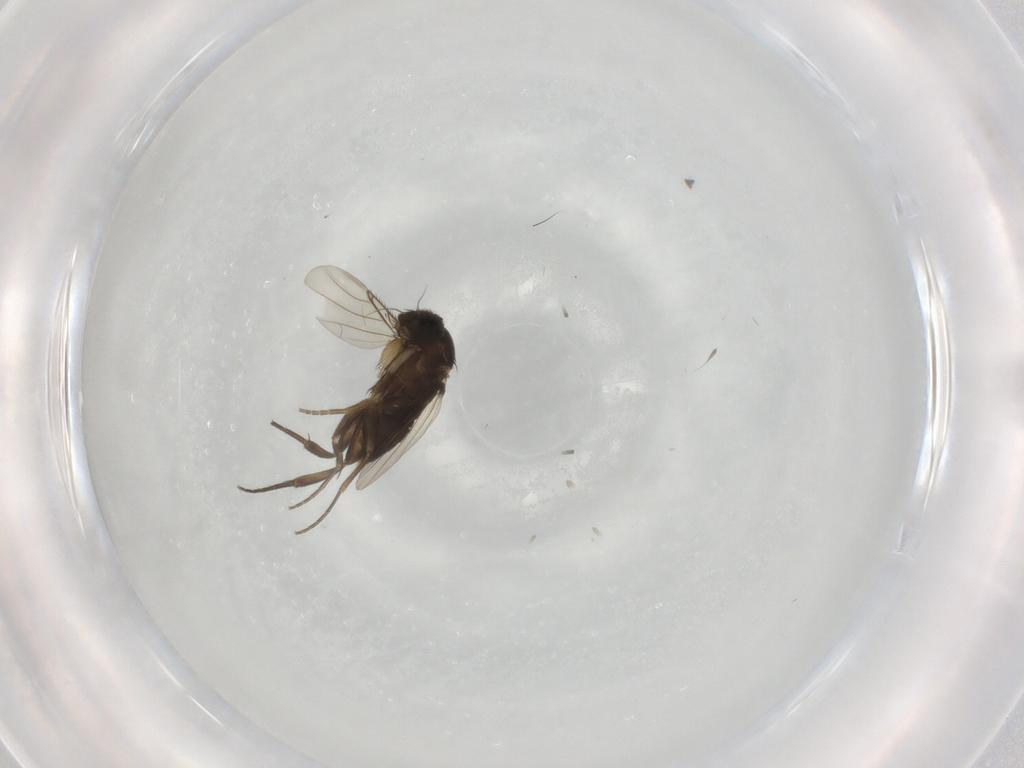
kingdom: Animalia
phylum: Arthropoda
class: Insecta
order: Diptera
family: Phoridae
